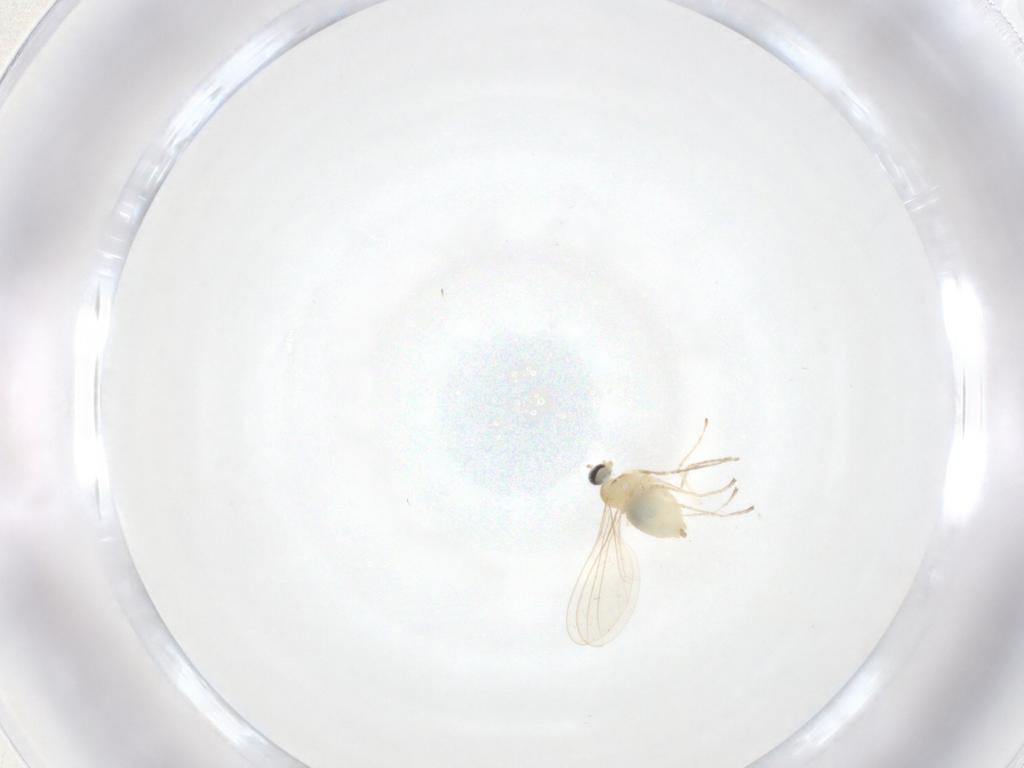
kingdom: Animalia
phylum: Arthropoda
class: Insecta
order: Diptera
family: Cecidomyiidae
